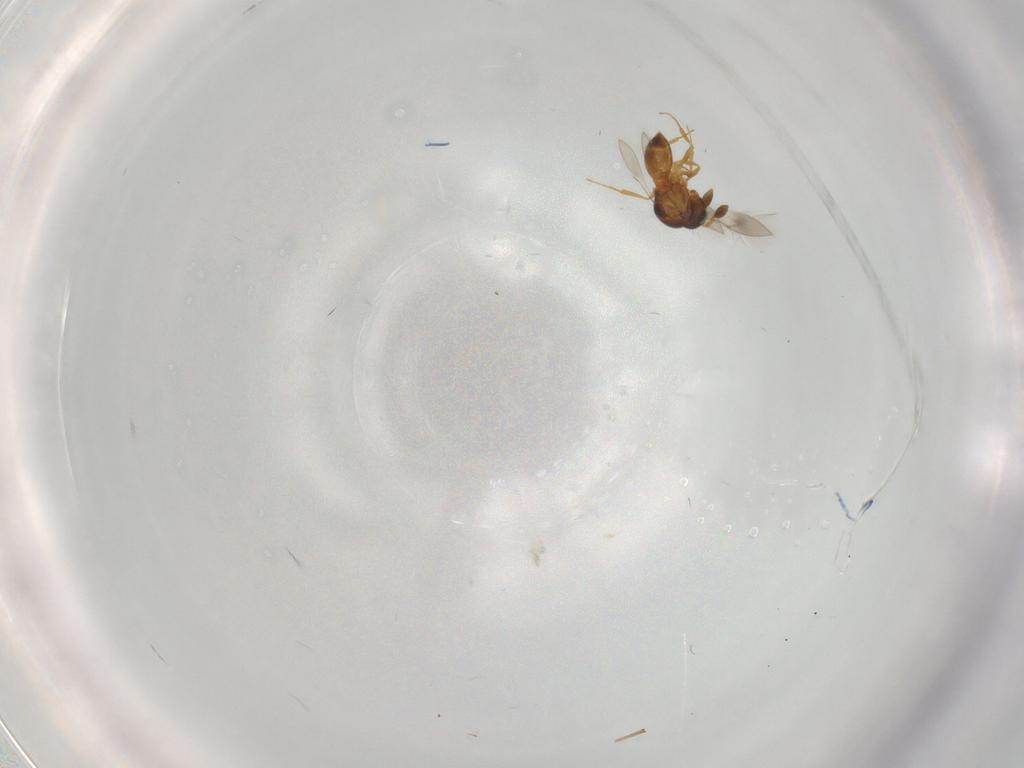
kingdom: Animalia
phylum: Arthropoda
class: Insecta
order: Hymenoptera
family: Scelionidae
